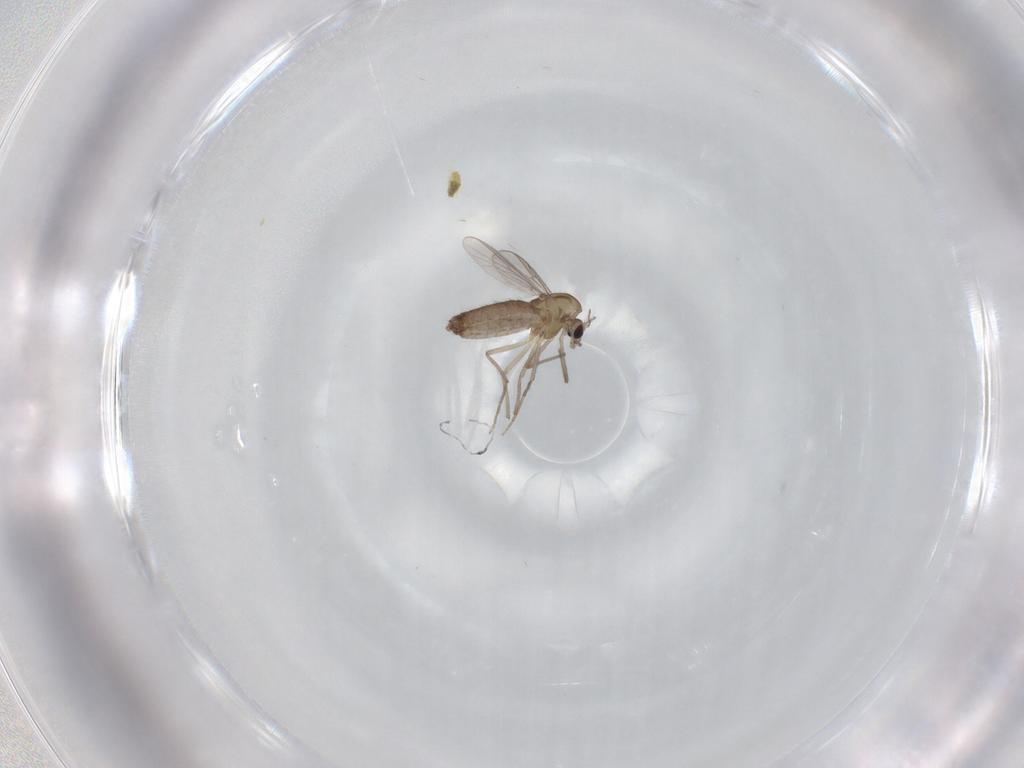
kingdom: Animalia
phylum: Arthropoda
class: Insecta
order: Diptera
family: Chironomidae
